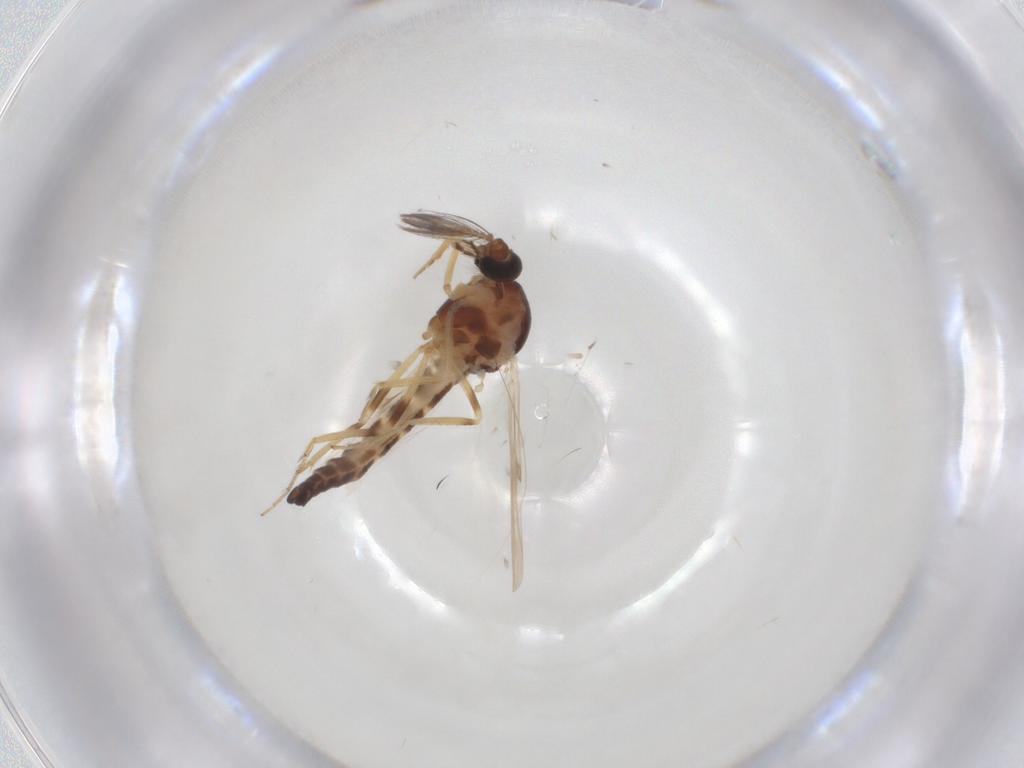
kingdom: Animalia
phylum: Arthropoda
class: Insecta
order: Diptera
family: Ceratopogonidae
